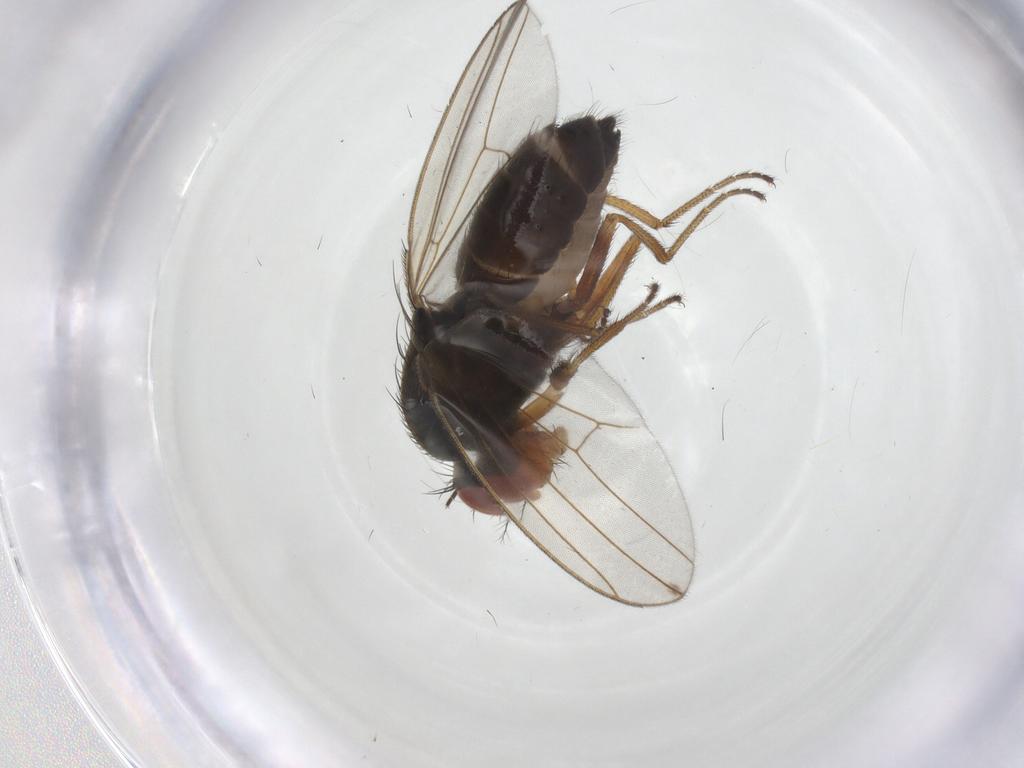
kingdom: Animalia
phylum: Arthropoda
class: Insecta
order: Diptera
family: Drosophilidae
